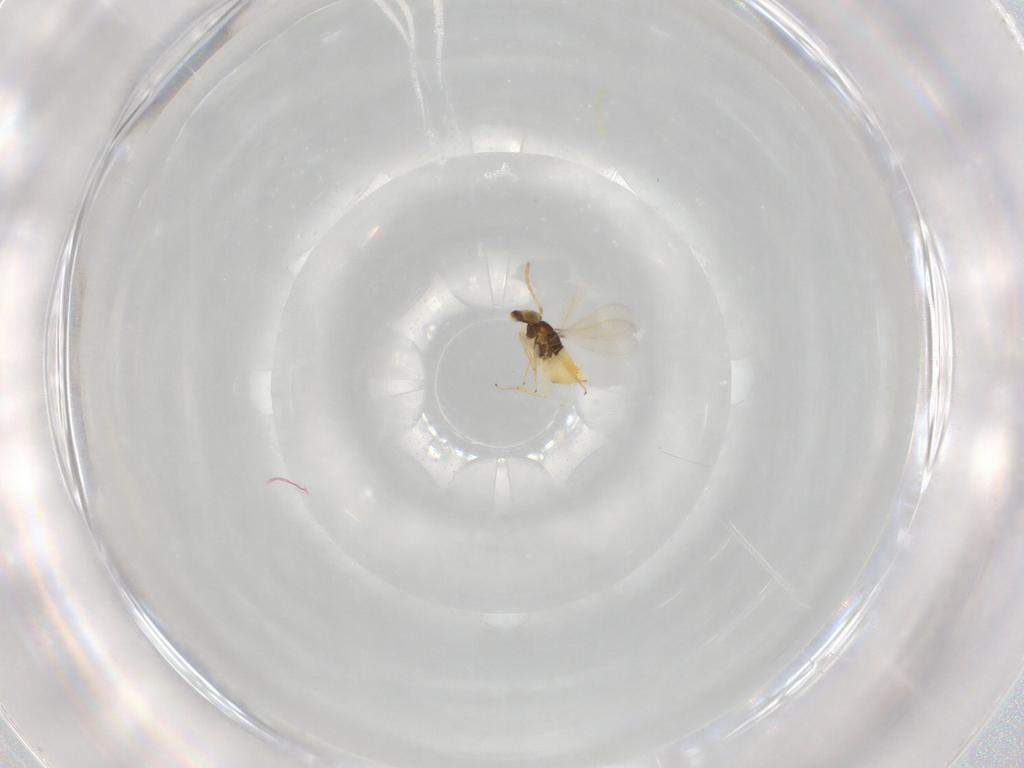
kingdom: Animalia
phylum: Arthropoda
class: Insecta
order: Hymenoptera
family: Aphelinidae
